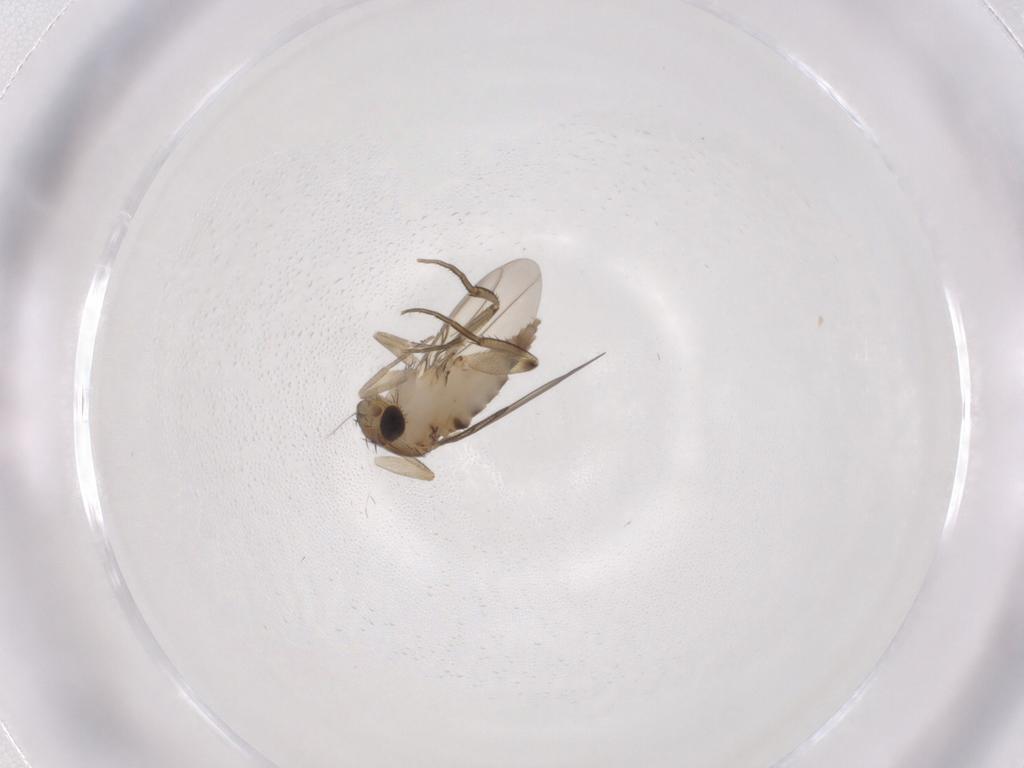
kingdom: Animalia
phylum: Arthropoda
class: Insecta
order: Diptera
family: Phoridae
